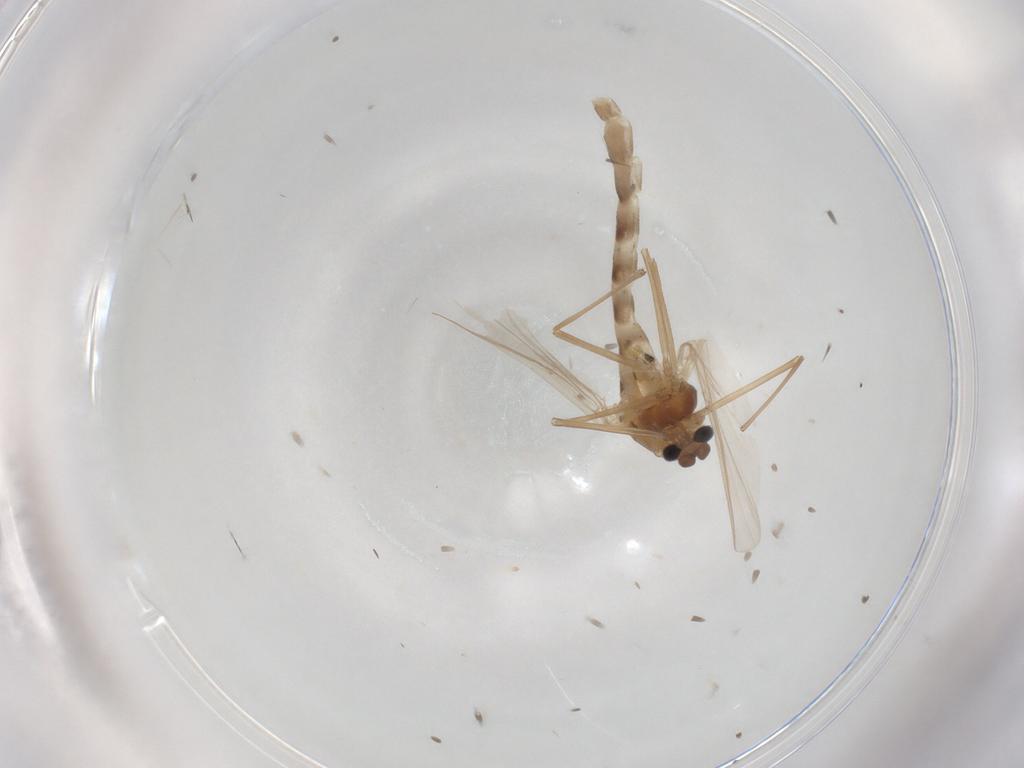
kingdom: Animalia
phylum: Arthropoda
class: Insecta
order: Diptera
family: Chironomidae
